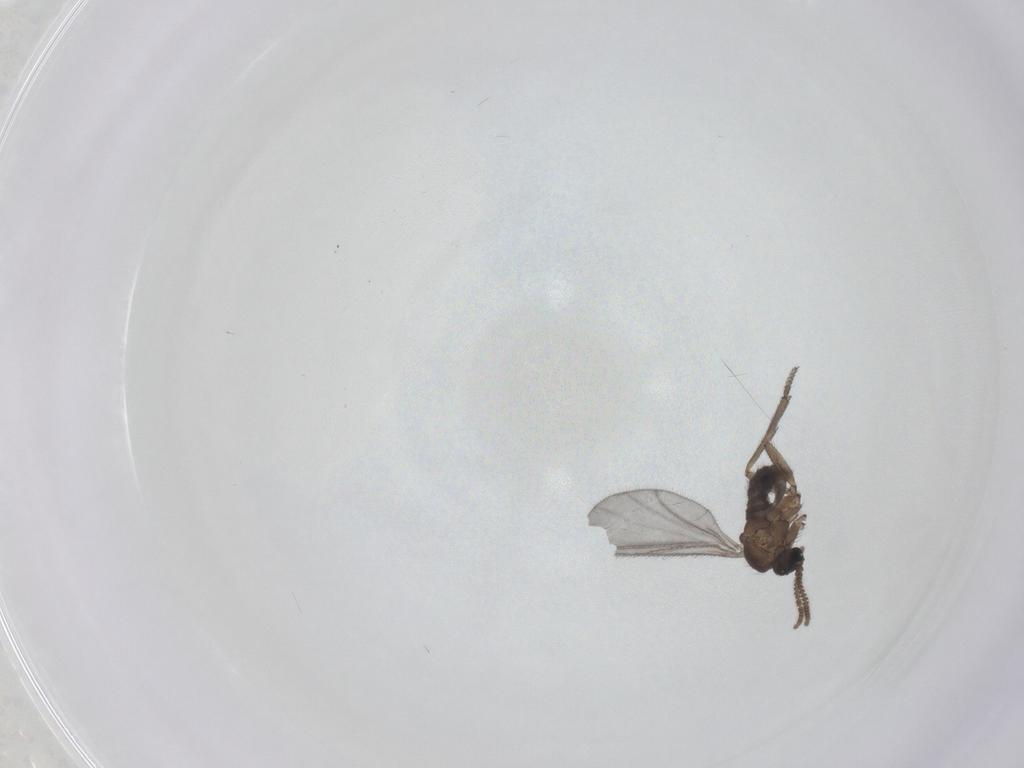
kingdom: Animalia
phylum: Arthropoda
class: Insecta
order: Diptera
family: Sciaridae
